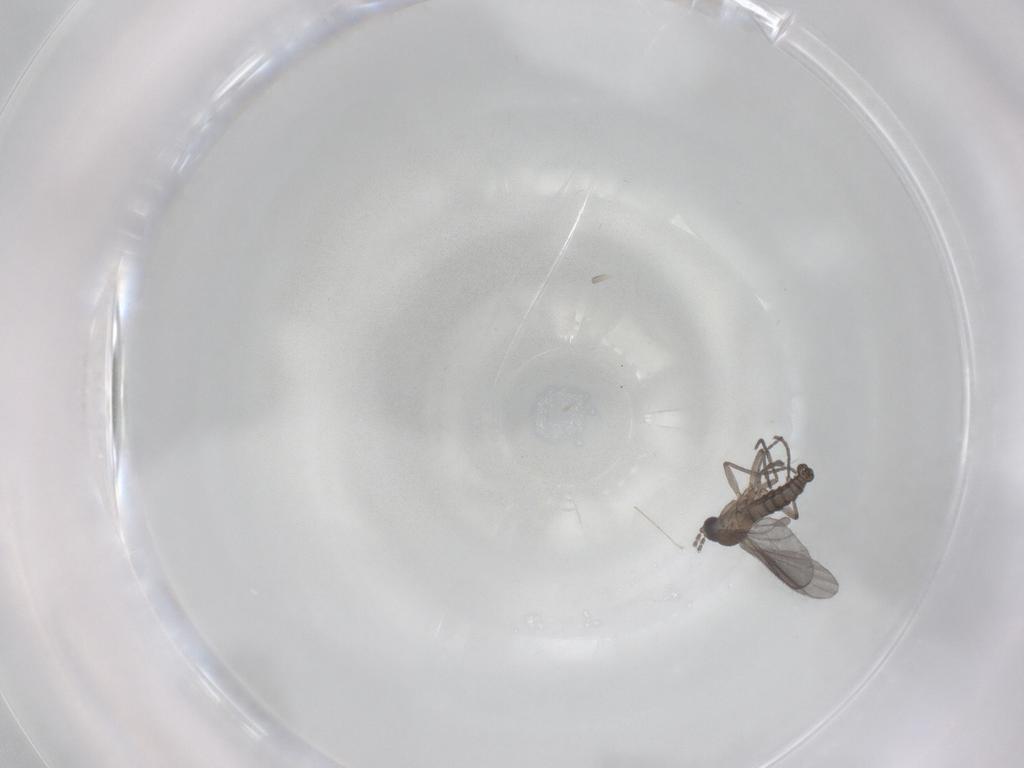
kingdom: Animalia
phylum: Arthropoda
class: Insecta
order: Diptera
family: Sciaridae
